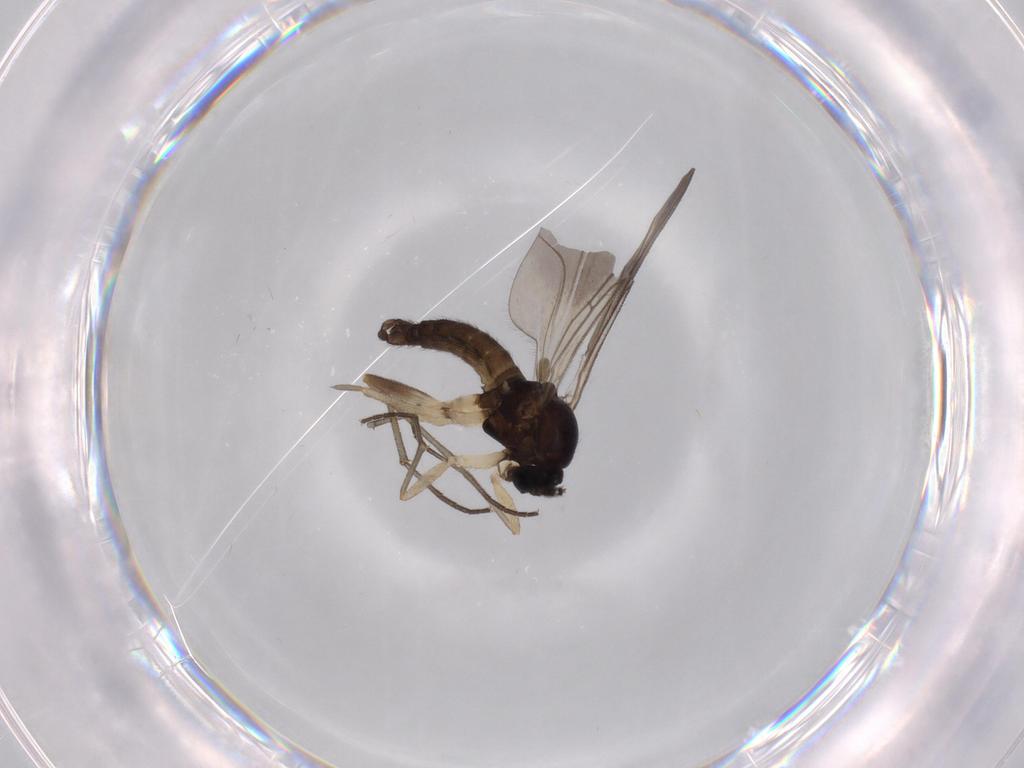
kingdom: Animalia
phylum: Arthropoda
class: Insecta
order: Diptera
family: Sciaridae
